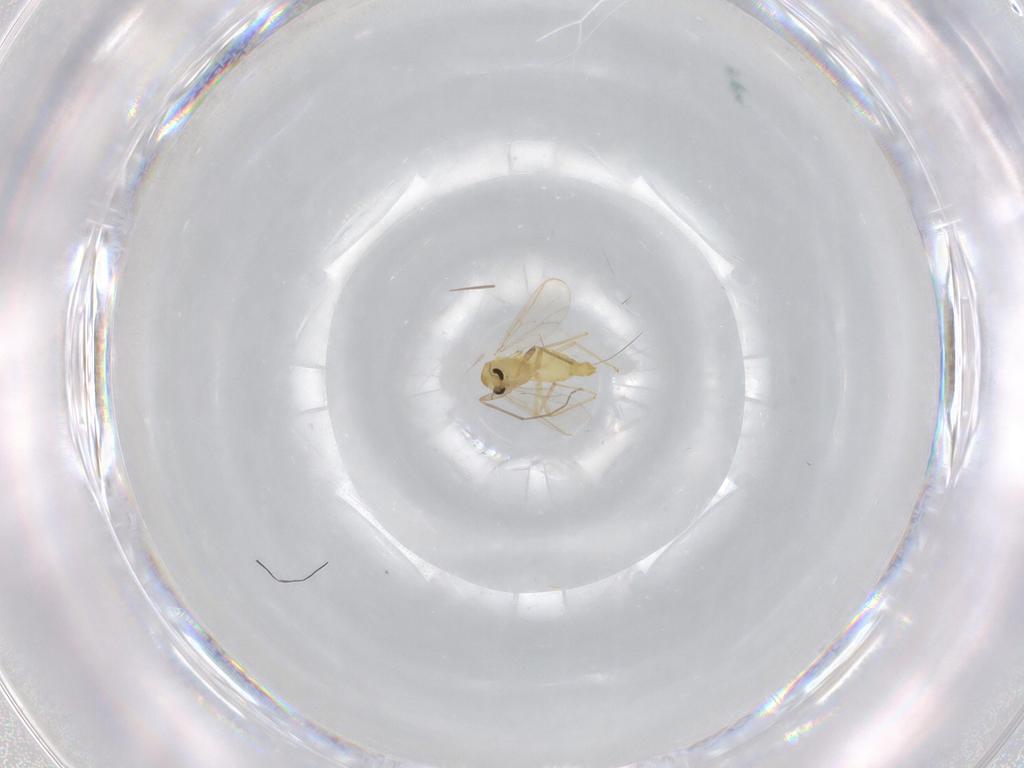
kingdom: Animalia
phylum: Arthropoda
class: Insecta
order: Diptera
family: Chironomidae
